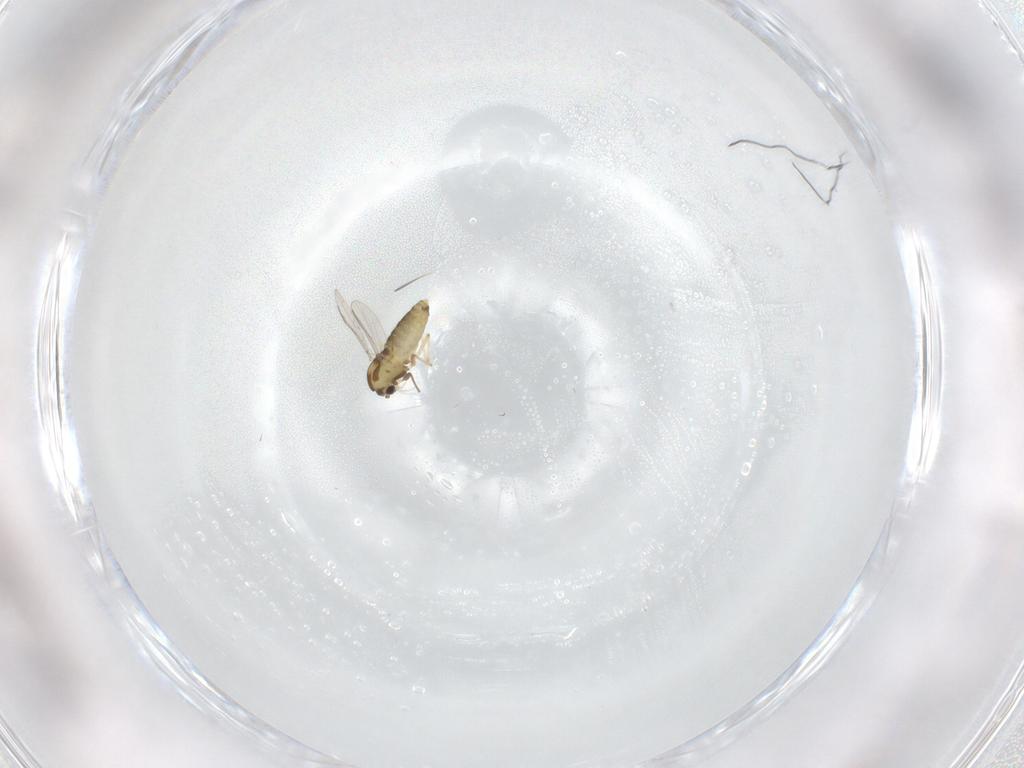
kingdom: Animalia
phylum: Arthropoda
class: Insecta
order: Diptera
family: Chironomidae
